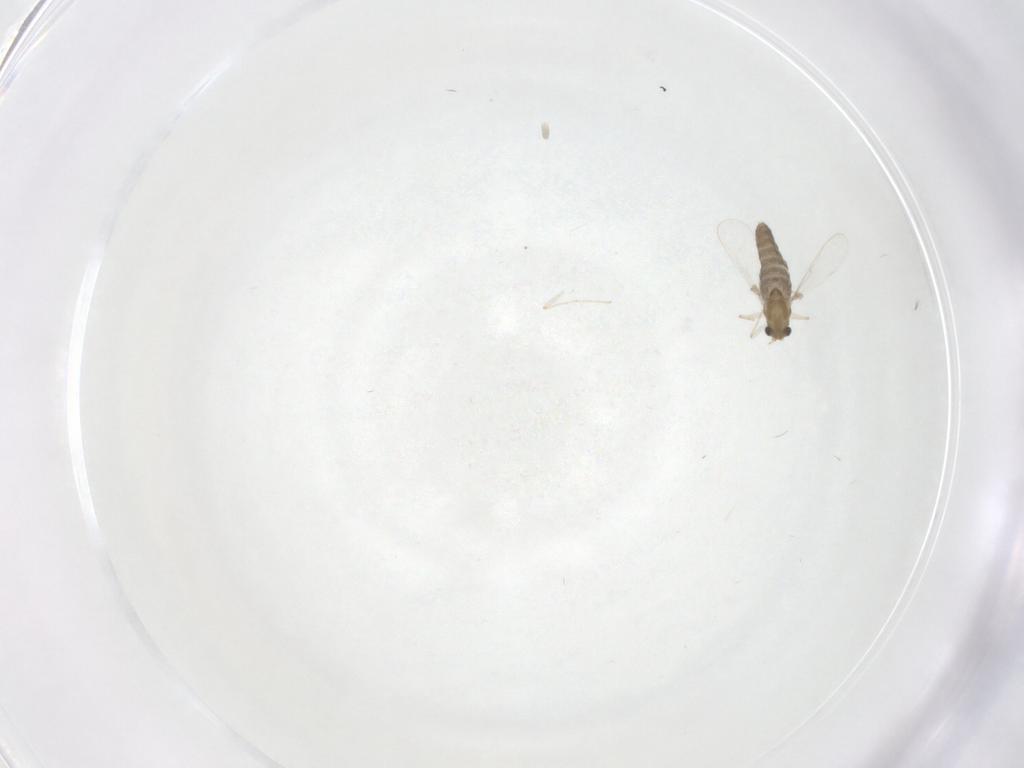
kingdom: Animalia
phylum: Arthropoda
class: Insecta
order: Diptera
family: Chironomidae
